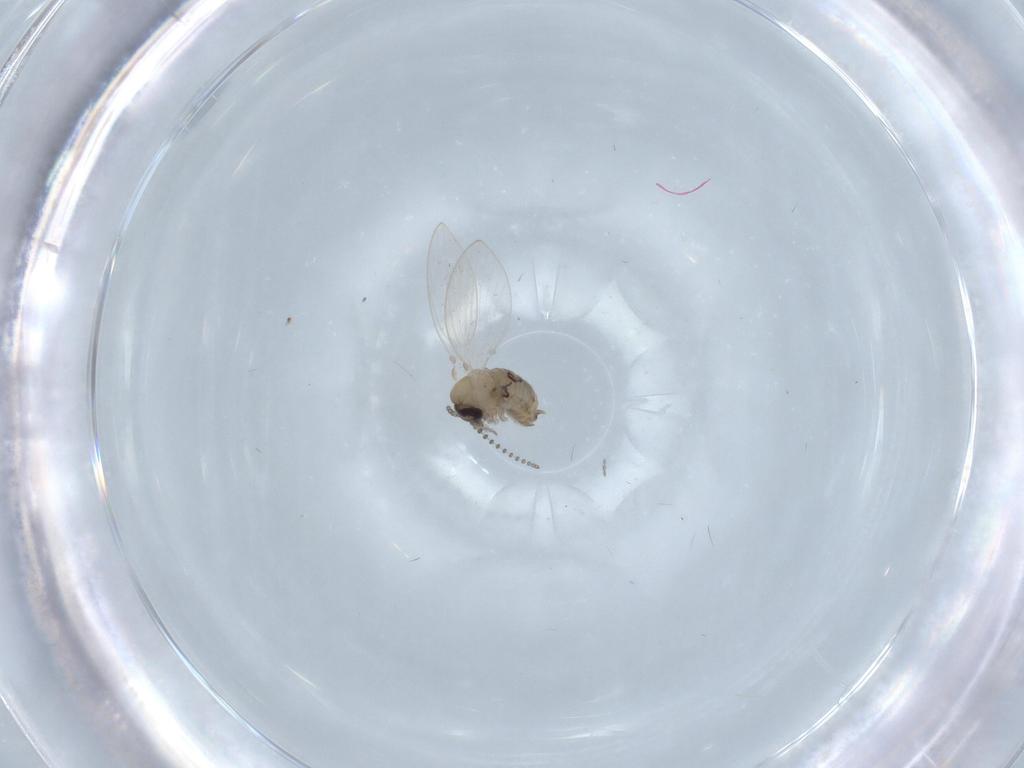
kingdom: Animalia
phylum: Arthropoda
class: Insecta
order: Diptera
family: Psychodidae
